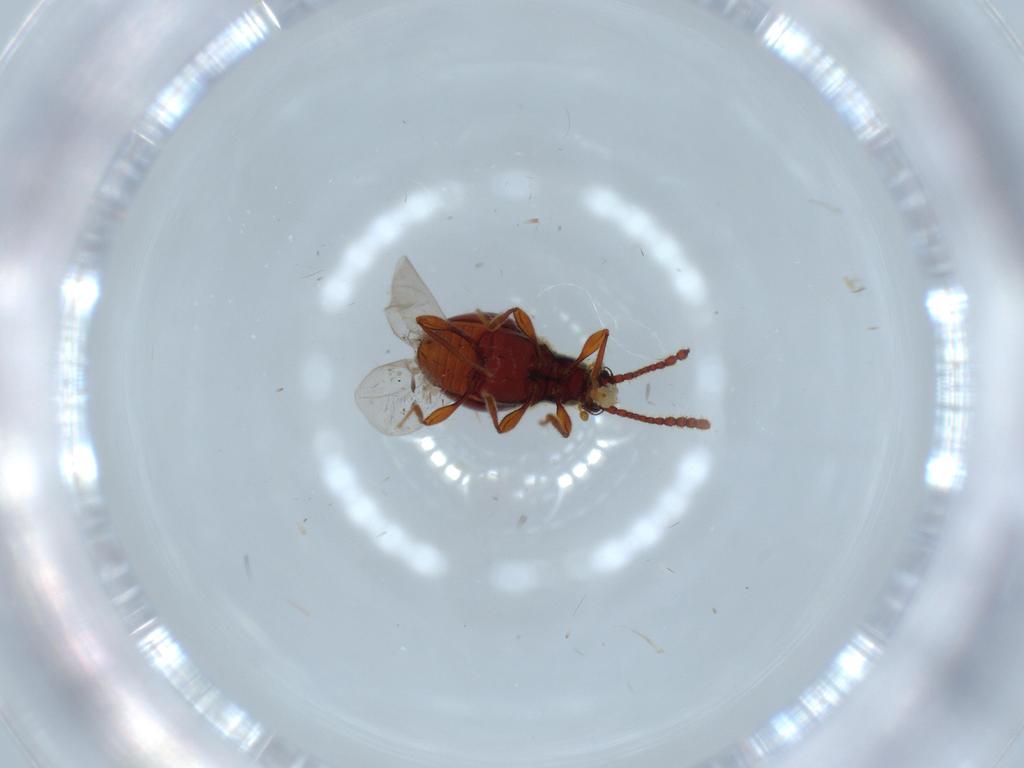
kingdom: Animalia
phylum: Arthropoda
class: Insecta
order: Coleoptera
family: Staphylinidae
